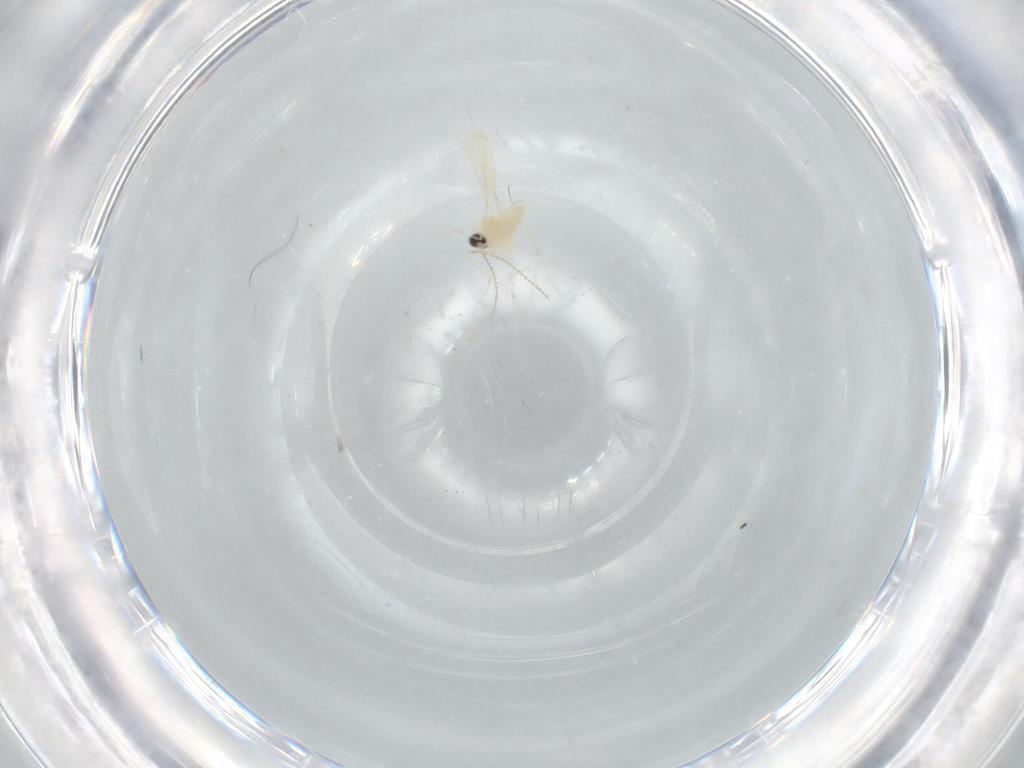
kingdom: Animalia
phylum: Arthropoda
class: Insecta
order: Diptera
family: Cecidomyiidae
